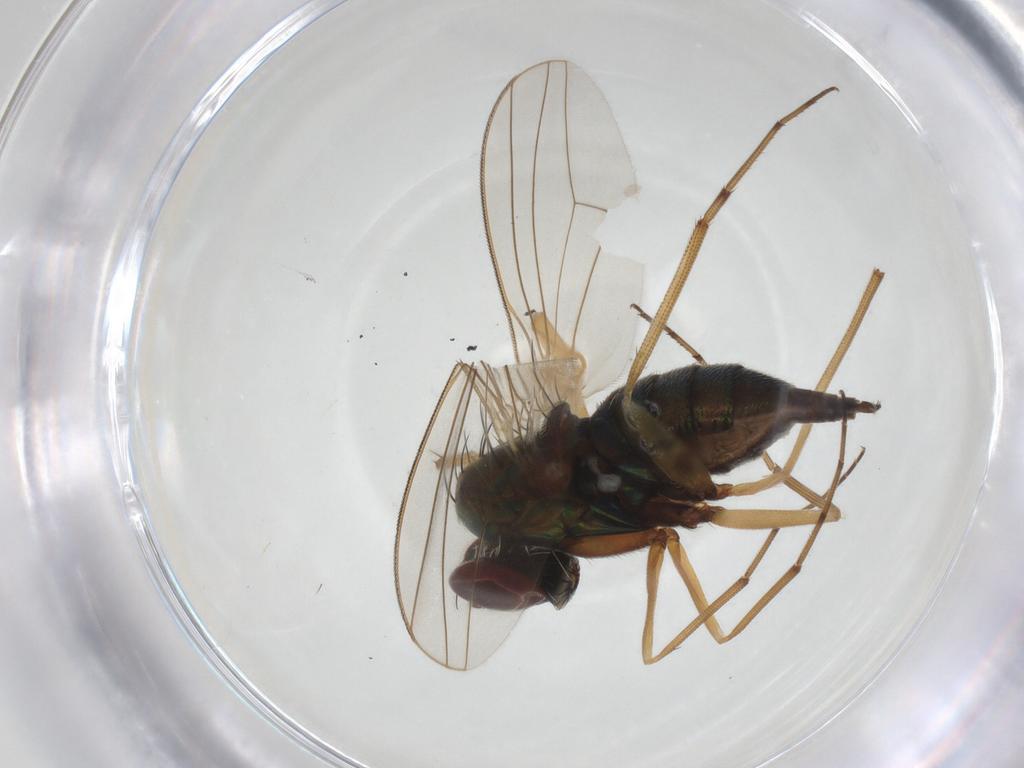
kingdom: Animalia
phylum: Arthropoda
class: Insecta
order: Diptera
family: Dolichopodidae
